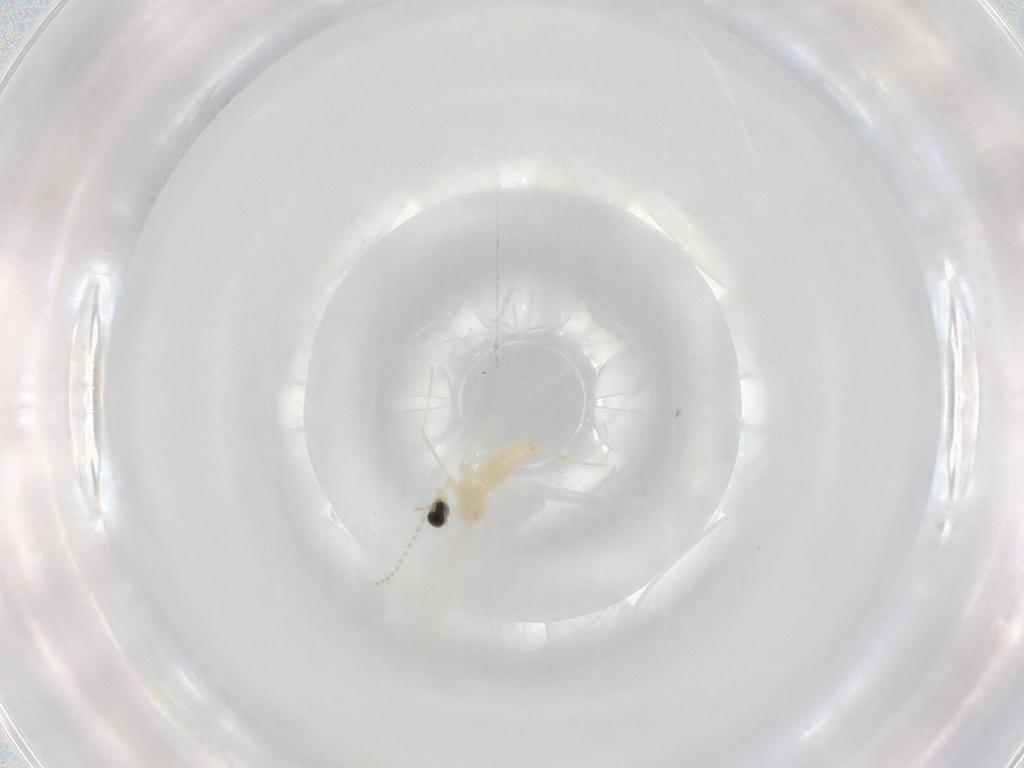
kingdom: Animalia
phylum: Arthropoda
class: Insecta
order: Diptera
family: Cecidomyiidae
